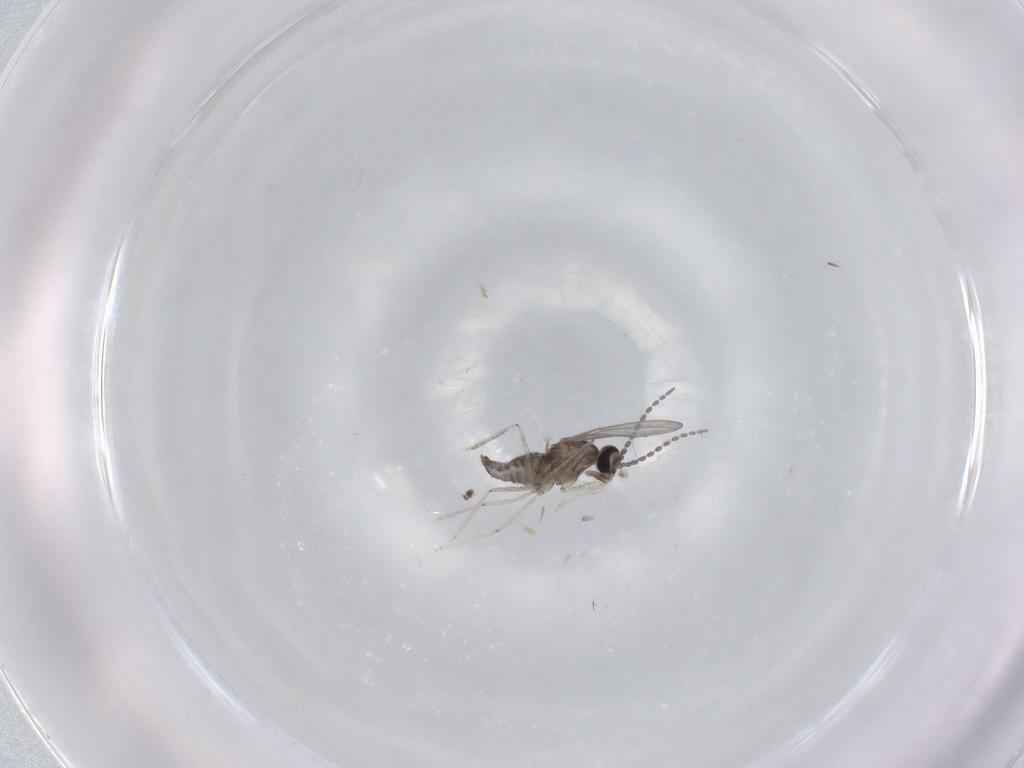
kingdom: Animalia
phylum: Arthropoda
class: Insecta
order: Diptera
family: Cecidomyiidae
